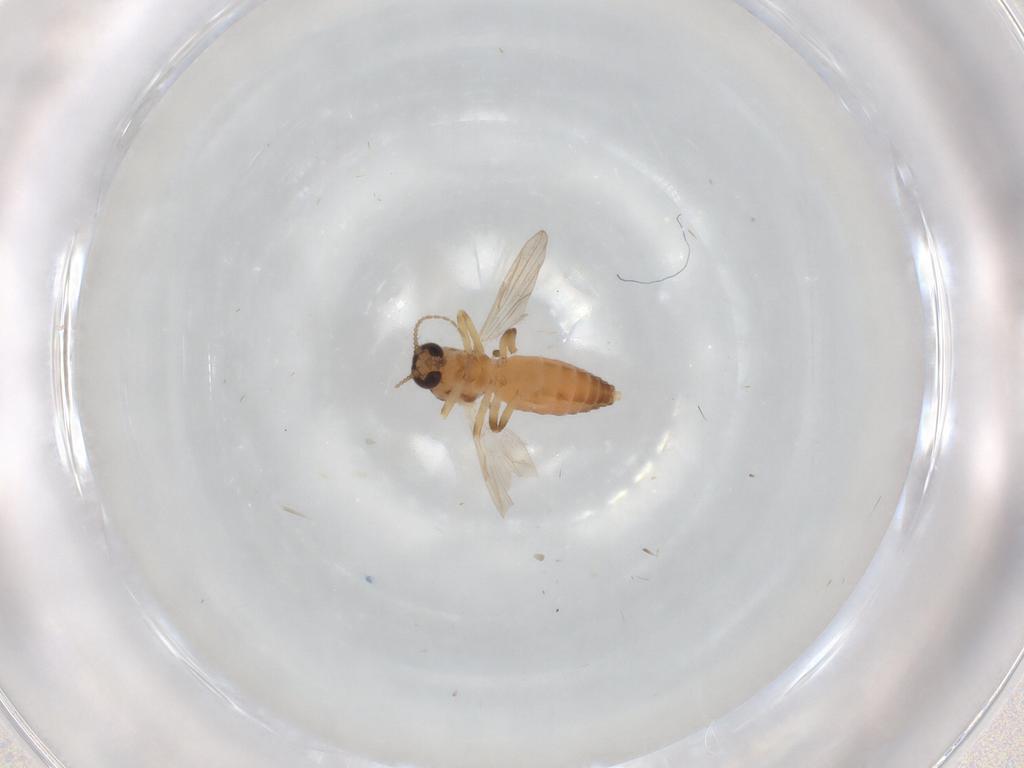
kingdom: Animalia
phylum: Arthropoda
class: Insecta
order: Diptera
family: Ceratopogonidae
